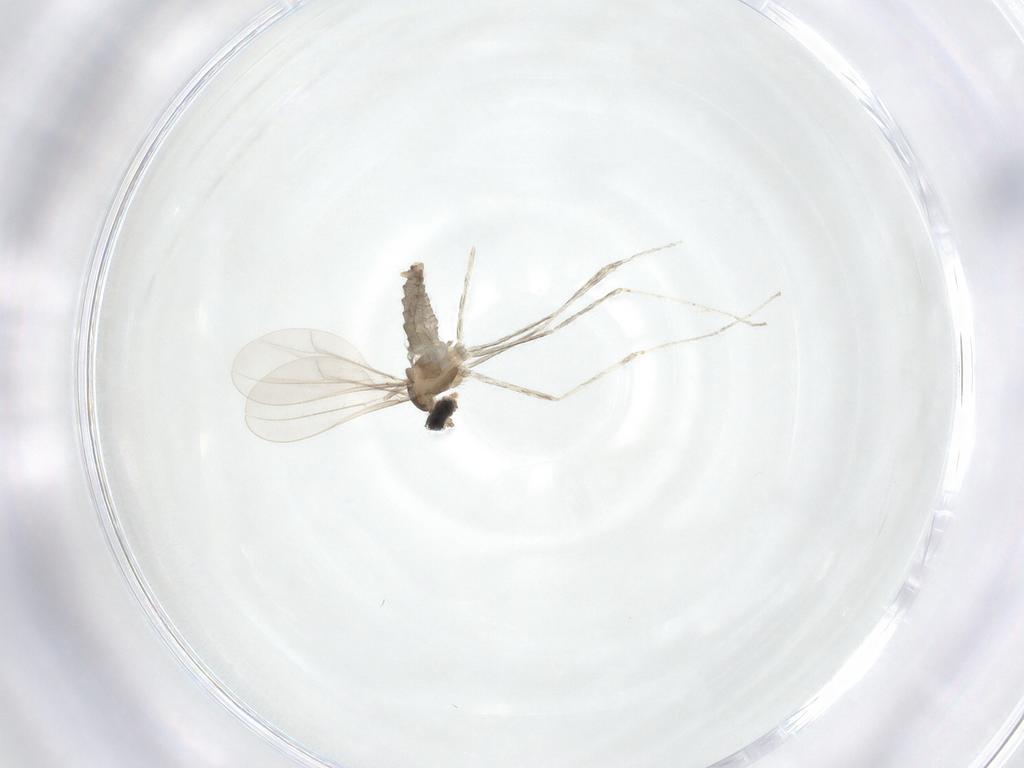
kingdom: Animalia
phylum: Arthropoda
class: Insecta
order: Diptera
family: Cecidomyiidae
